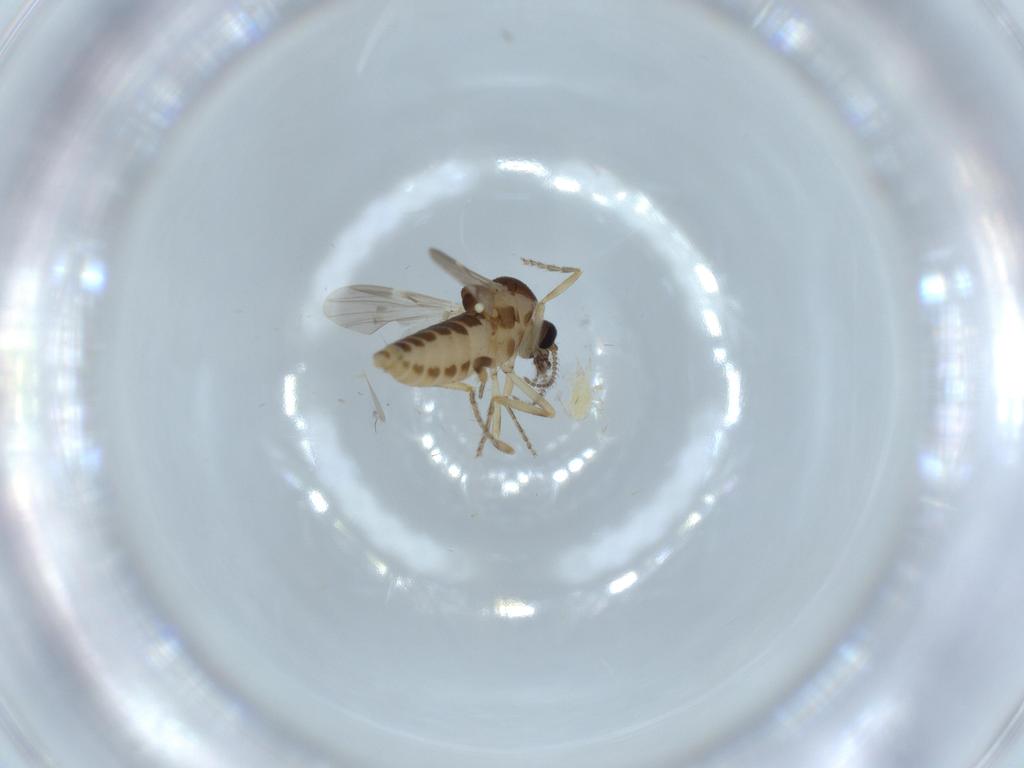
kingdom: Animalia
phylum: Arthropoda
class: Insecta
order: Diptera
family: Ceratopogonidae
